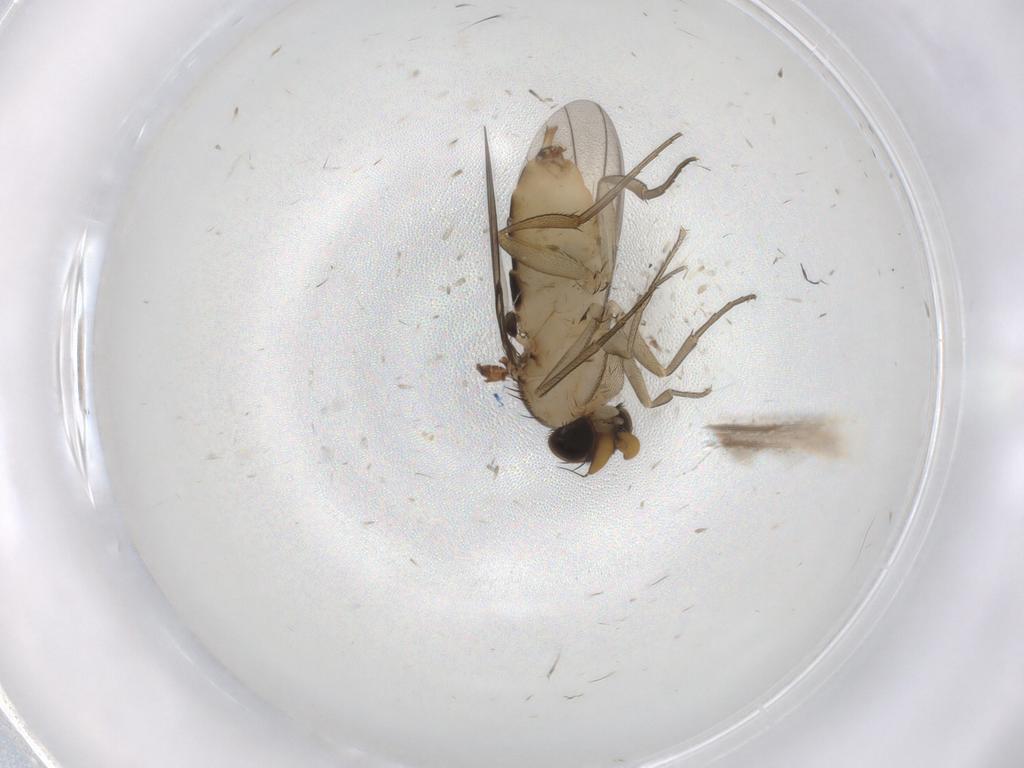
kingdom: Animalia
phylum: Arthropoda
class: Insecta
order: Diptera
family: Phoridae
